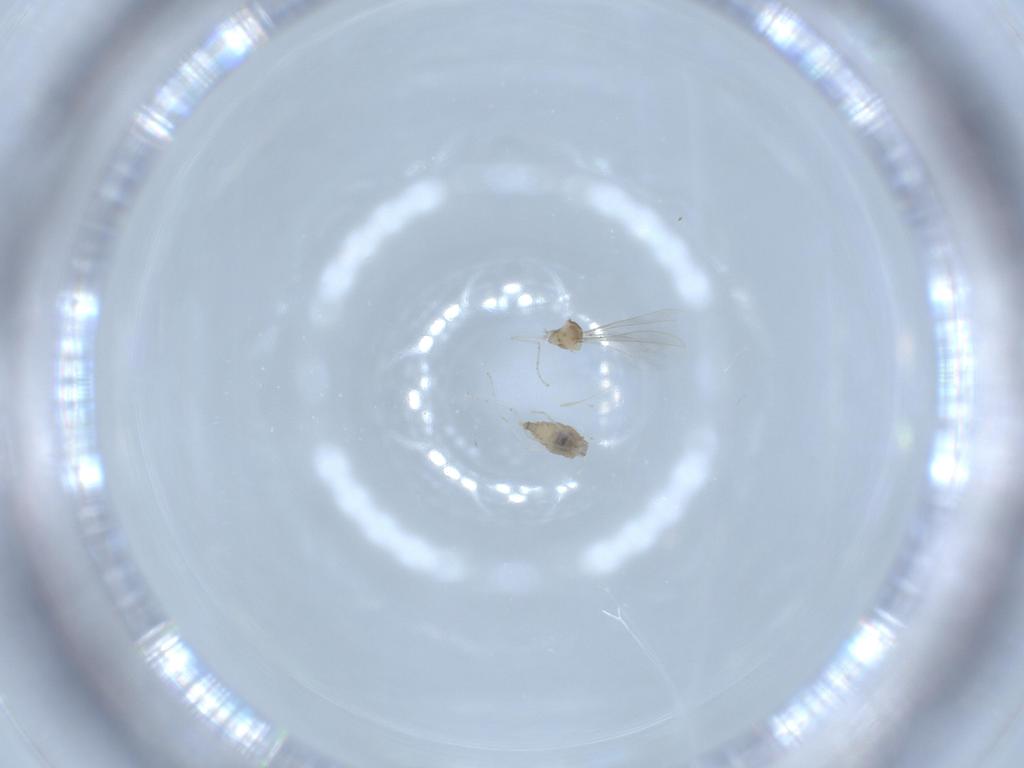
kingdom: Animalia
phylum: Arthropoda
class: Insecta
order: Diptera
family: Cecidomyiidae
